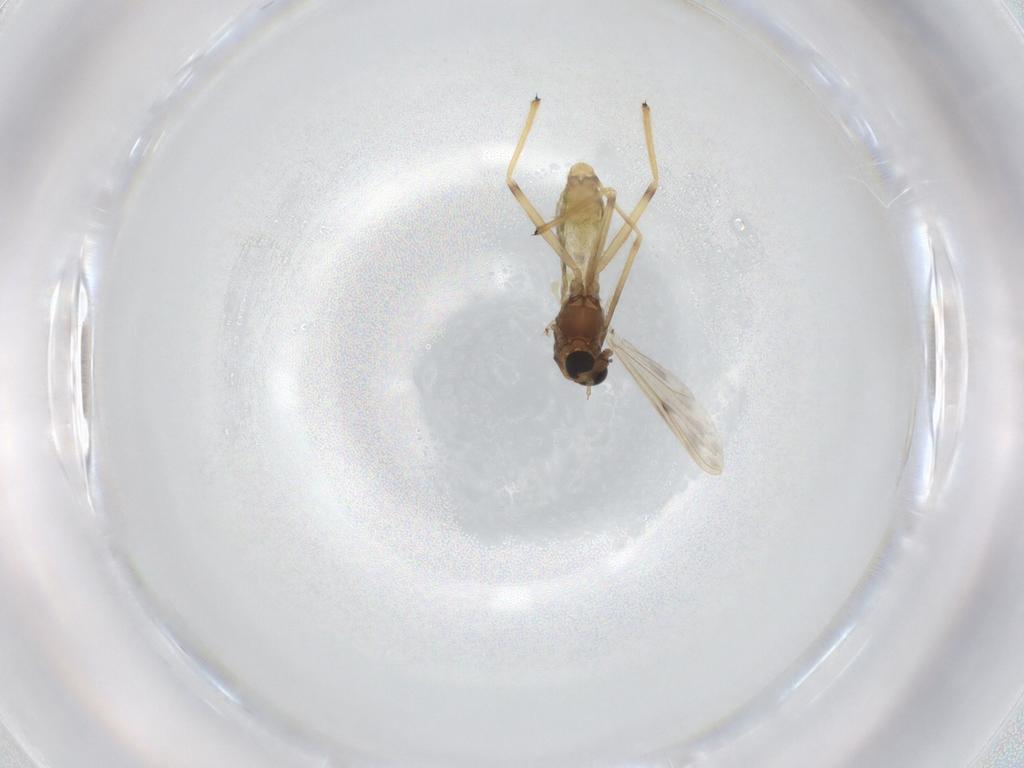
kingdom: Animalia
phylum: Arthropoda
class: Insecta
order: Diptera
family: Chironomidae
